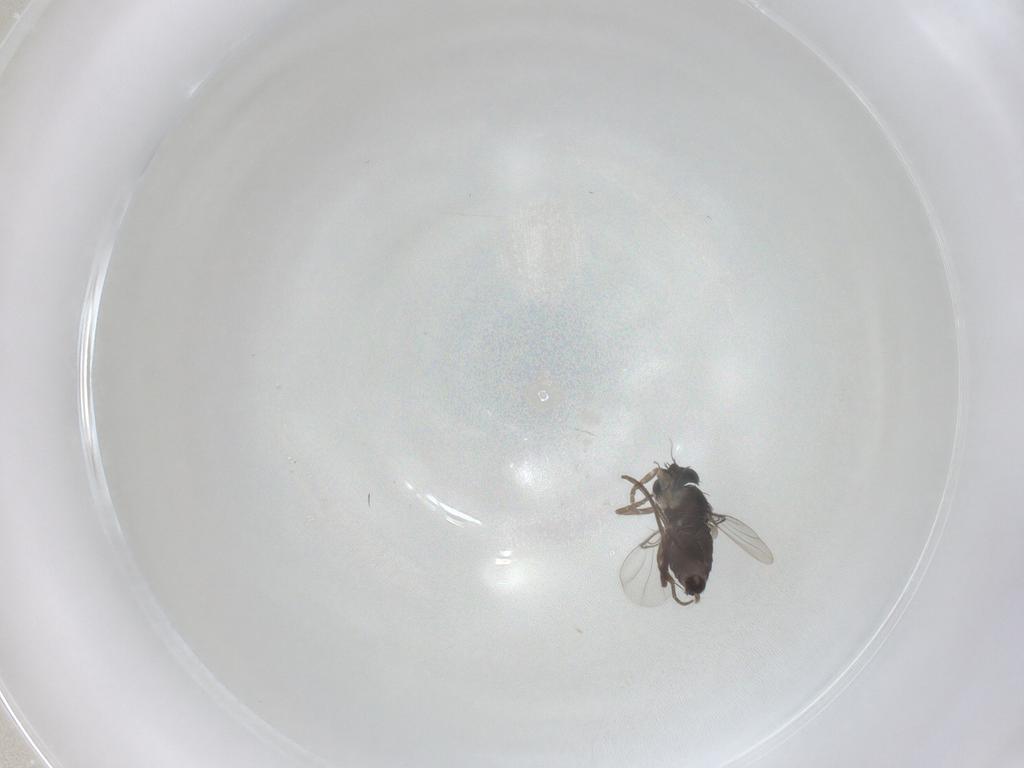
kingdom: Animalia
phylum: Arthropoda
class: Insecta
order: Diptera
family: Phoridae
